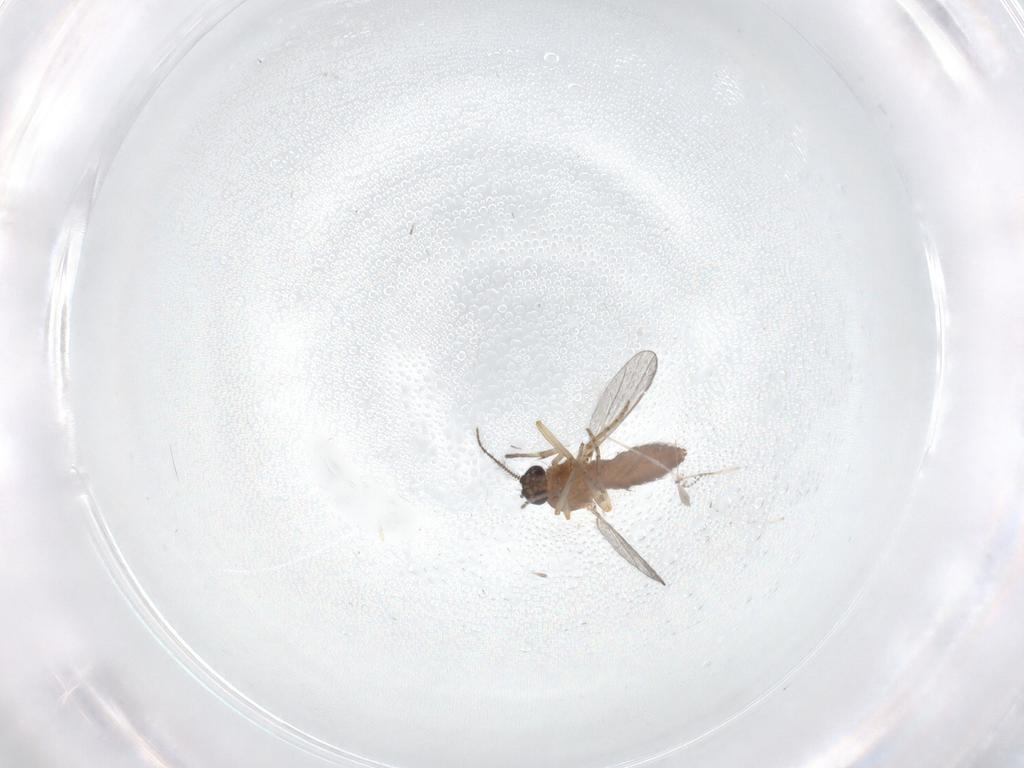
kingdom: Animalia
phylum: Arthropoda
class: Insecta
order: Diptera
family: Ceratopogonidae
